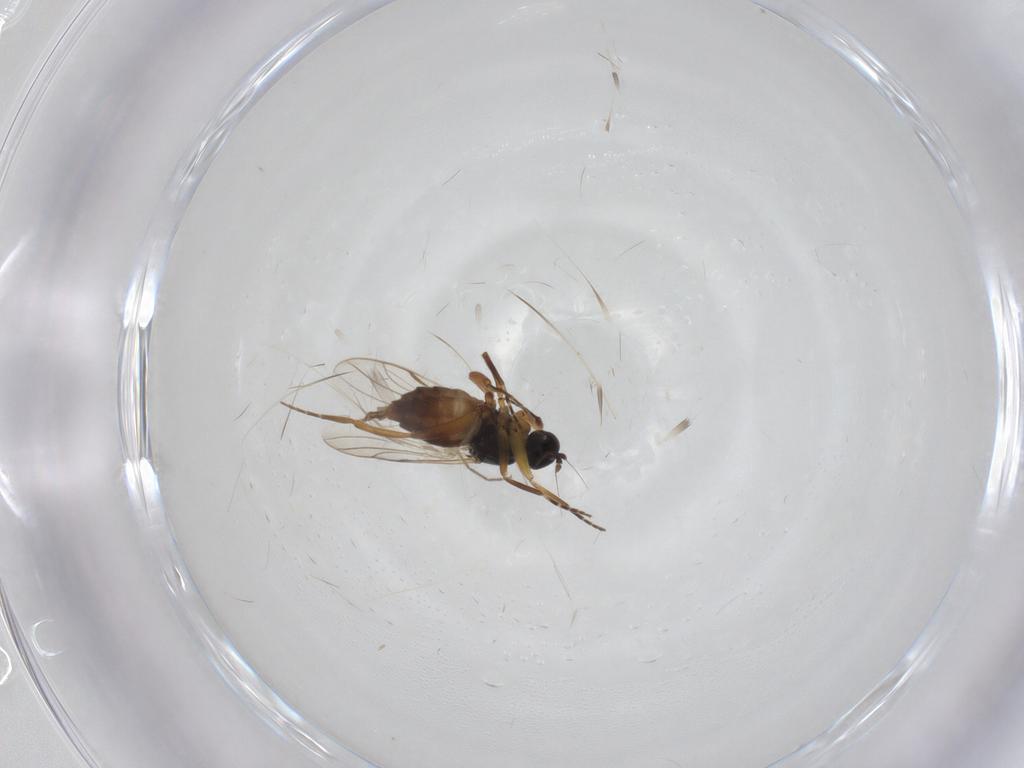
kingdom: Animalia
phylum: Arthropoda
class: Insecta
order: Diptera
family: Hybotidae
